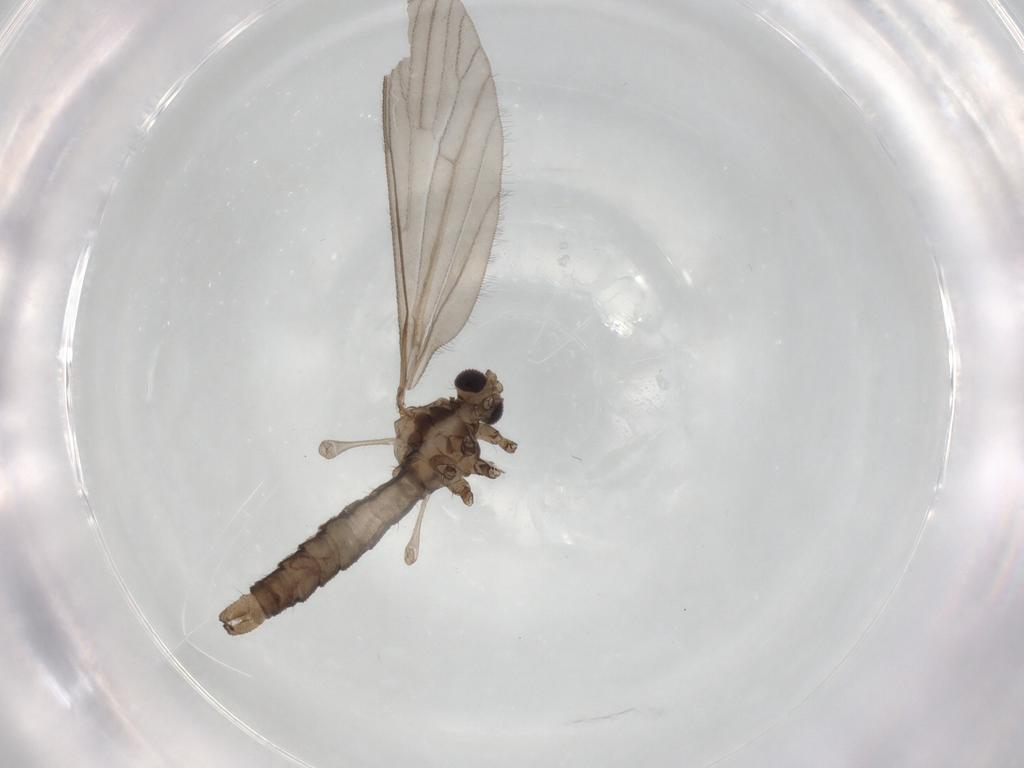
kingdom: Animalia
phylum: Arthropoda
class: Insecta
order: Diptera
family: Limoniidae
